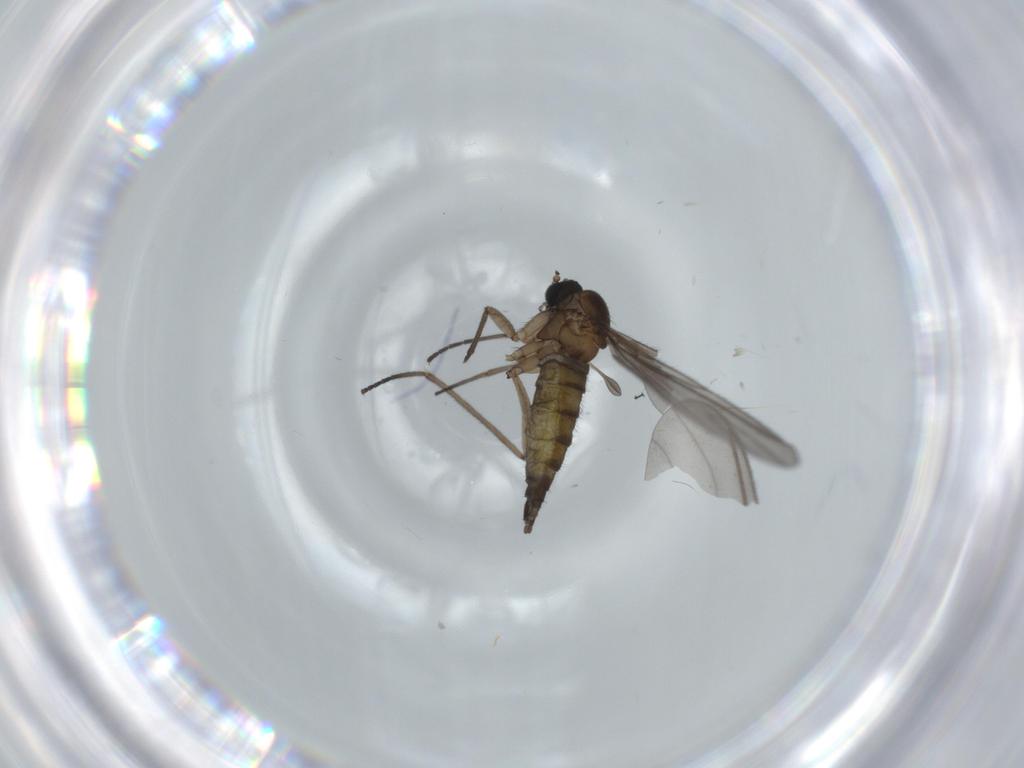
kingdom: Animalia
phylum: Arthropoda
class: Insecta
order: Diptera
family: Sciaridae
